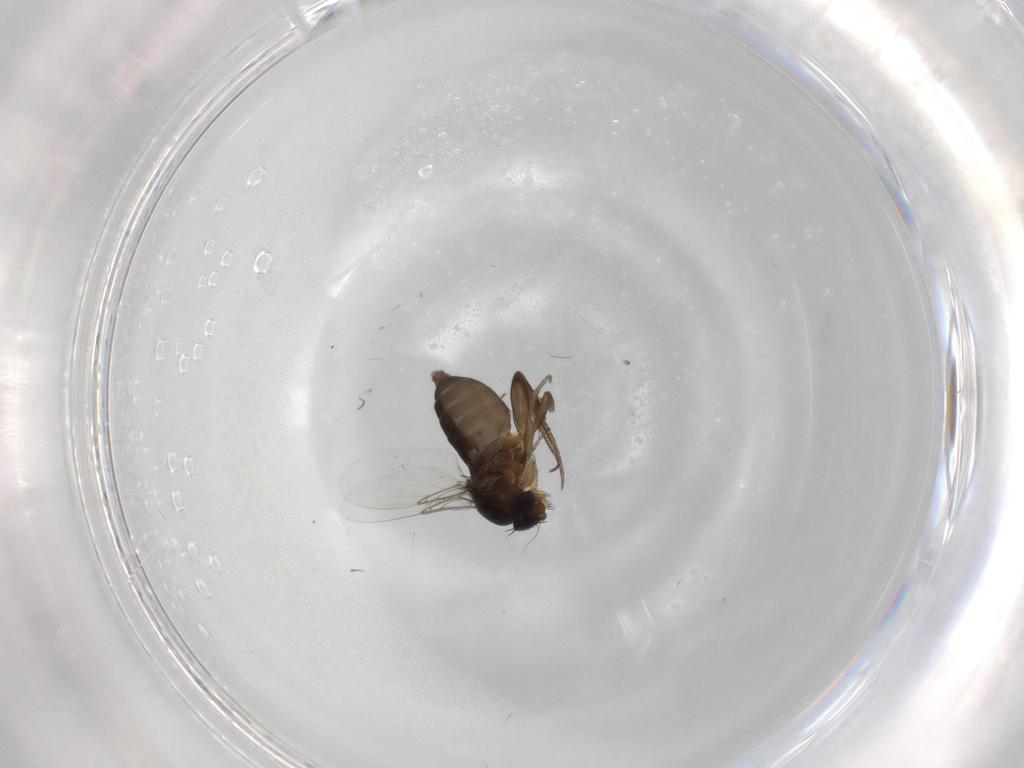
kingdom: Animalia
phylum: Arthropoda
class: Insecta
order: Diptera
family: Phoridae
